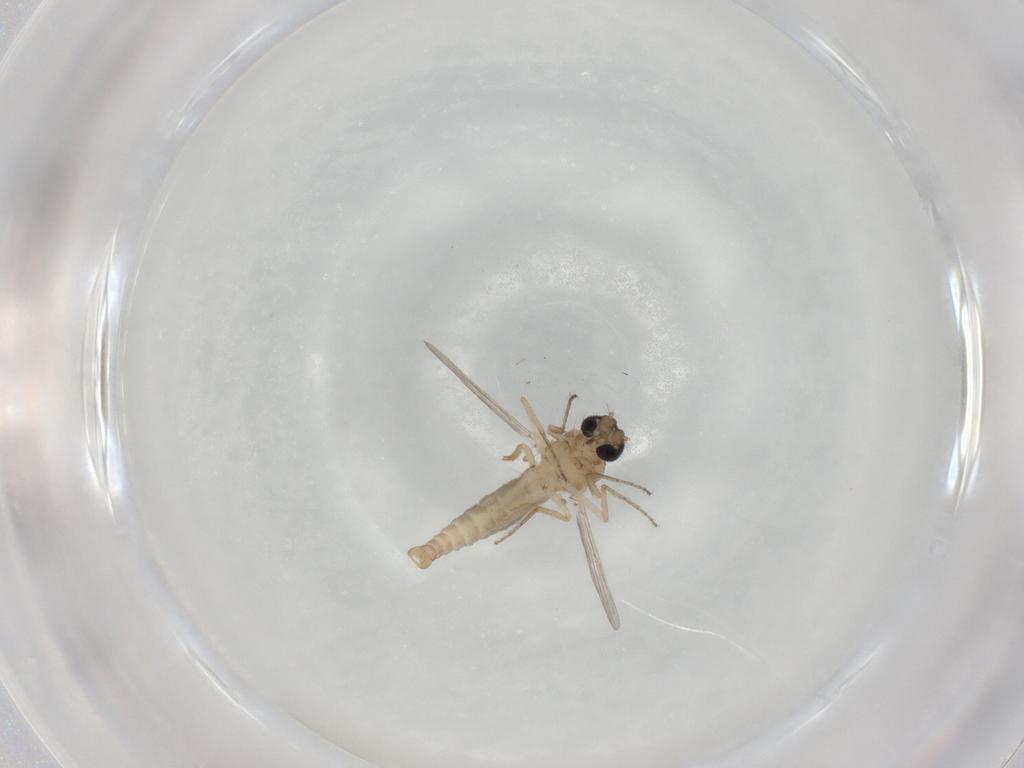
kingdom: Animalia
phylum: Arthropoda
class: Insecta
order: Diptera
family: Ceratopogonidae
